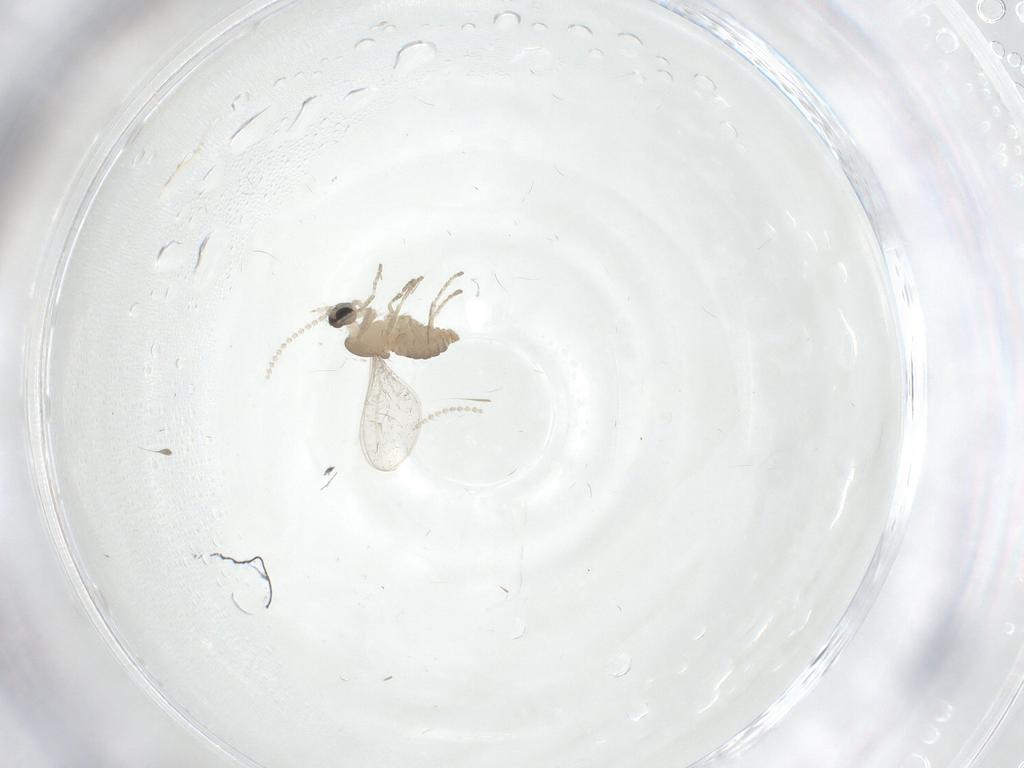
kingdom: Animalia
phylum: Arthropoda
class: Insecta
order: Diptera
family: Cecidomyiidae
